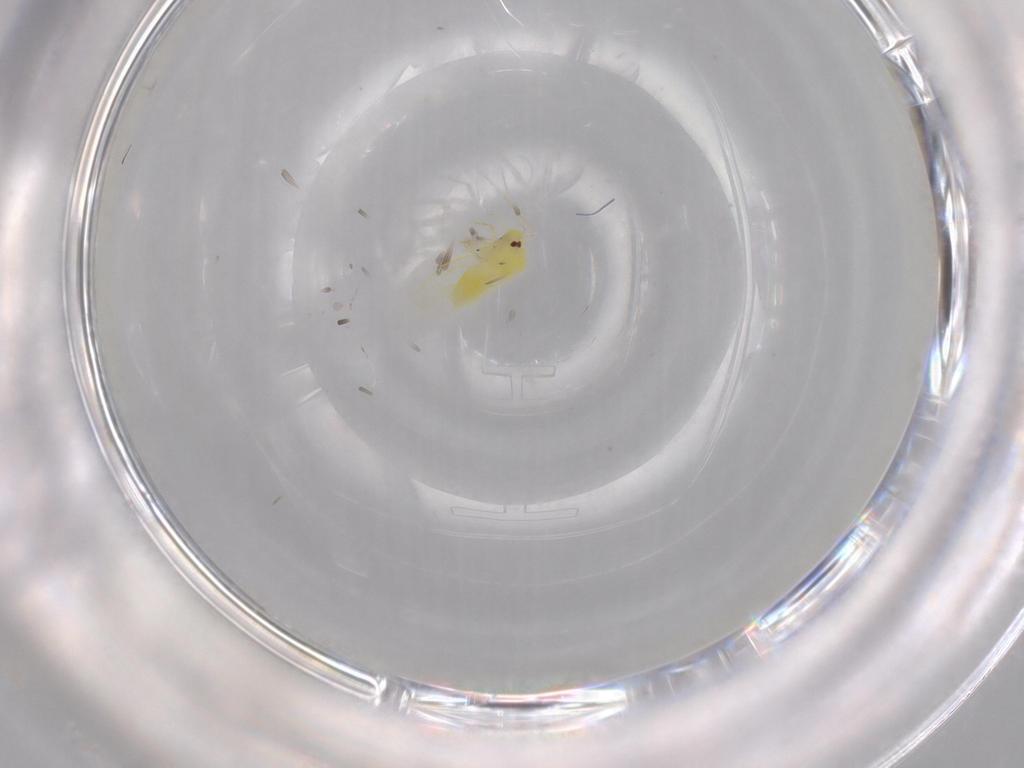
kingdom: Animalia
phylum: Arthropoda
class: Insecta
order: Hemiptera
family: Aleyrodidae
